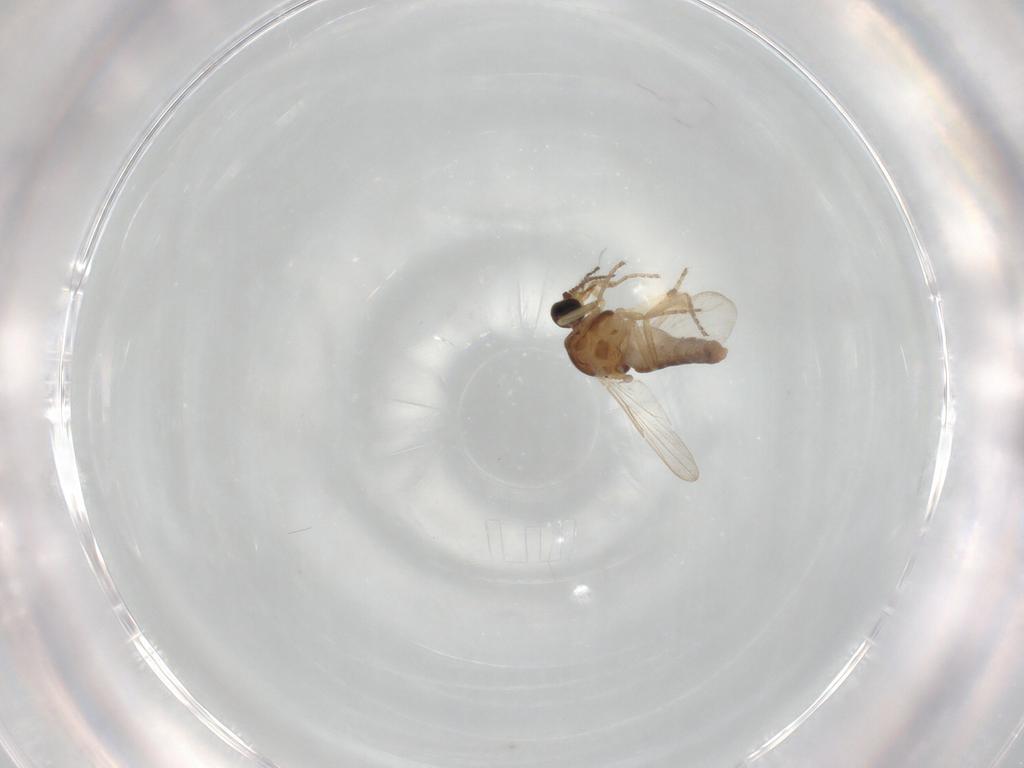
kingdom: Animalia
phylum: Arthropoda
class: Insecta
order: Diptera
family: Ceratopogonidae
